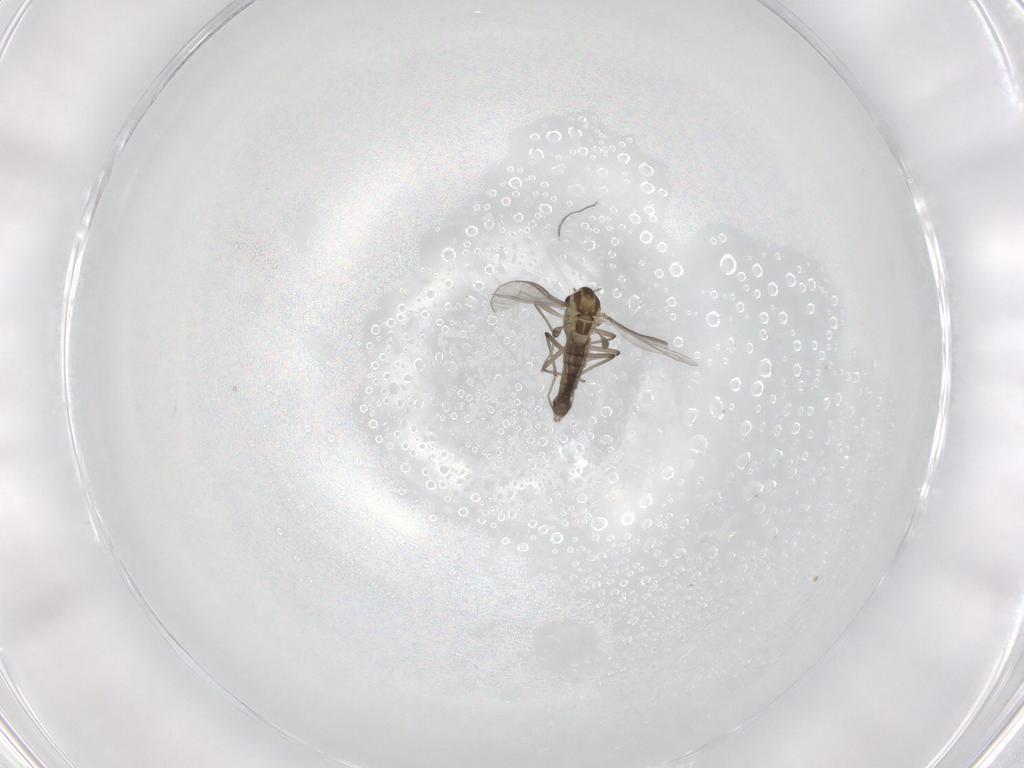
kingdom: Animalia
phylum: Arthropoda
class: Insecta
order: Diptera
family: Chironomidae
